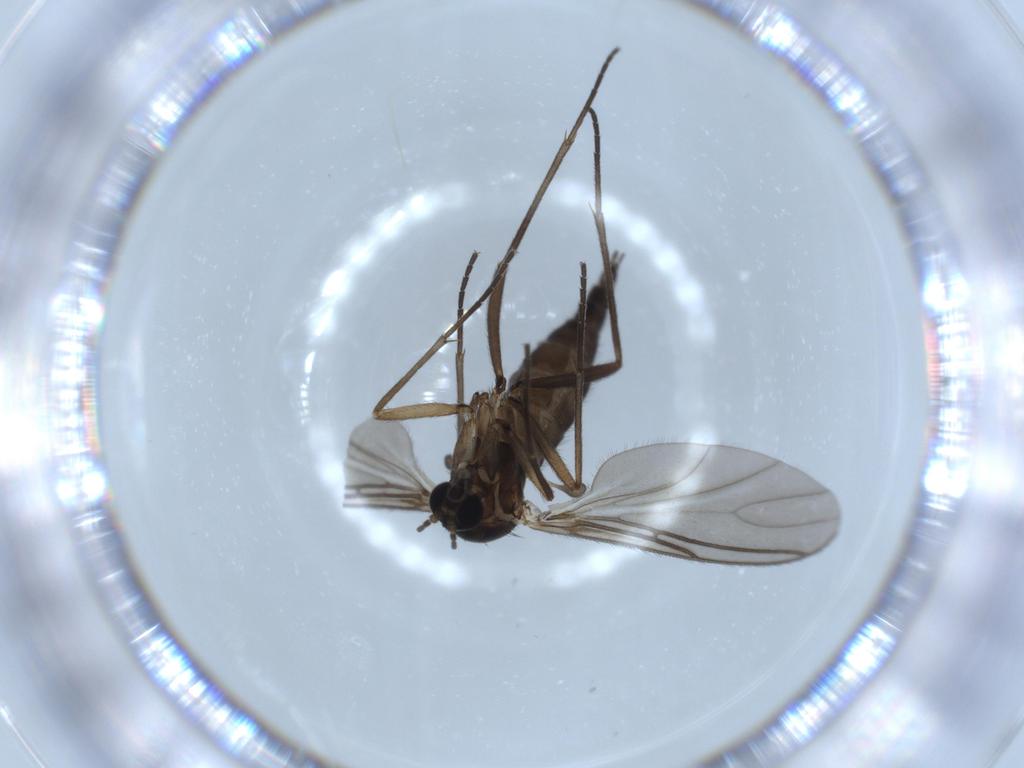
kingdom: Animalia
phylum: Arthropoda
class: Insecta
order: Diptera
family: Sciaridae
